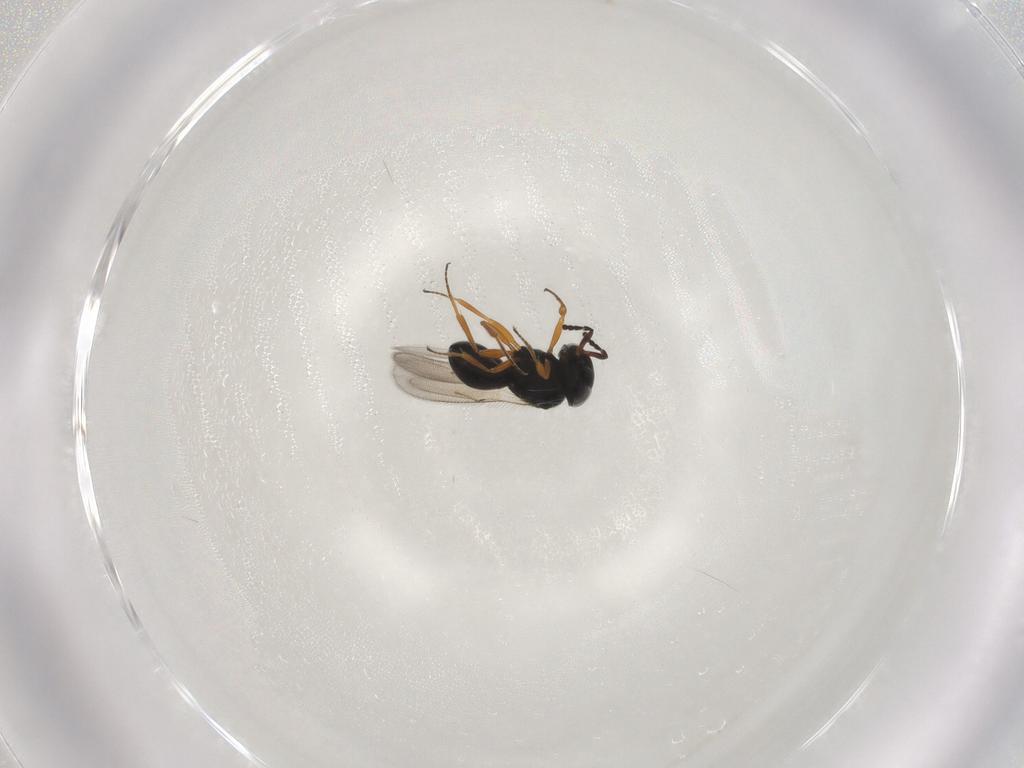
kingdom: Animalia
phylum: Arthropoda
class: Insecta
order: Hymenoptera
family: Scelionidae
